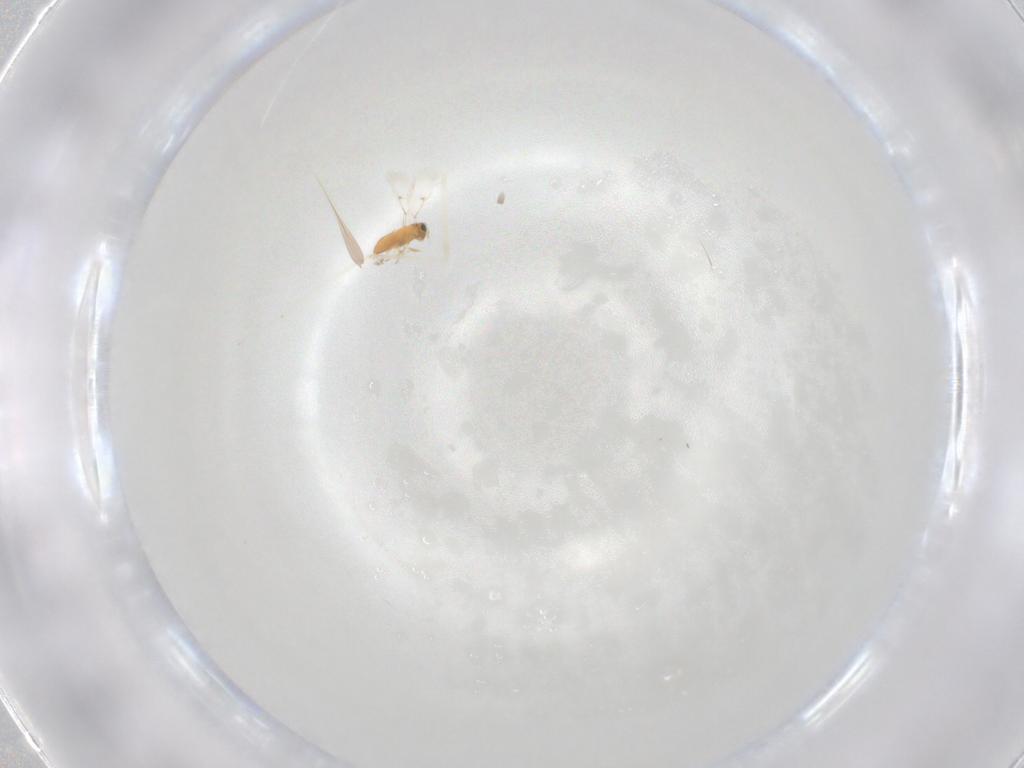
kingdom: Animalia
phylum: Arthropoda
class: Insecta
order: Hymenoptera
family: Trichogrammatidae
